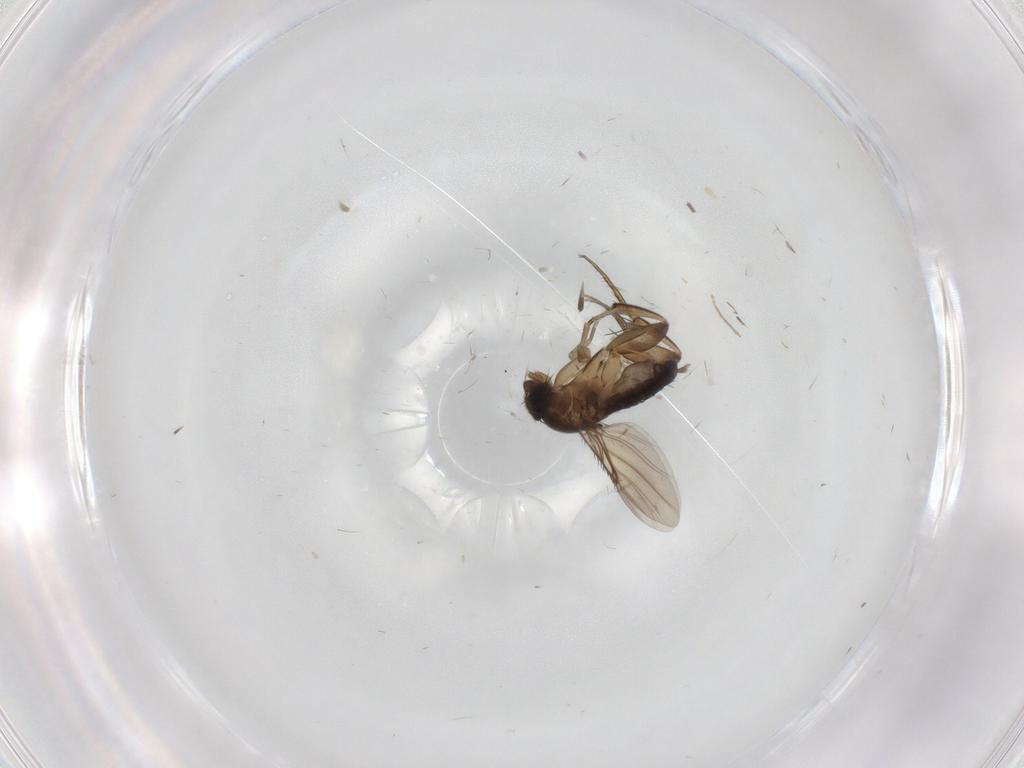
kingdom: Animalia
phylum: Arthropoda
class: Insecta
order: Diptera
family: Phoridae
